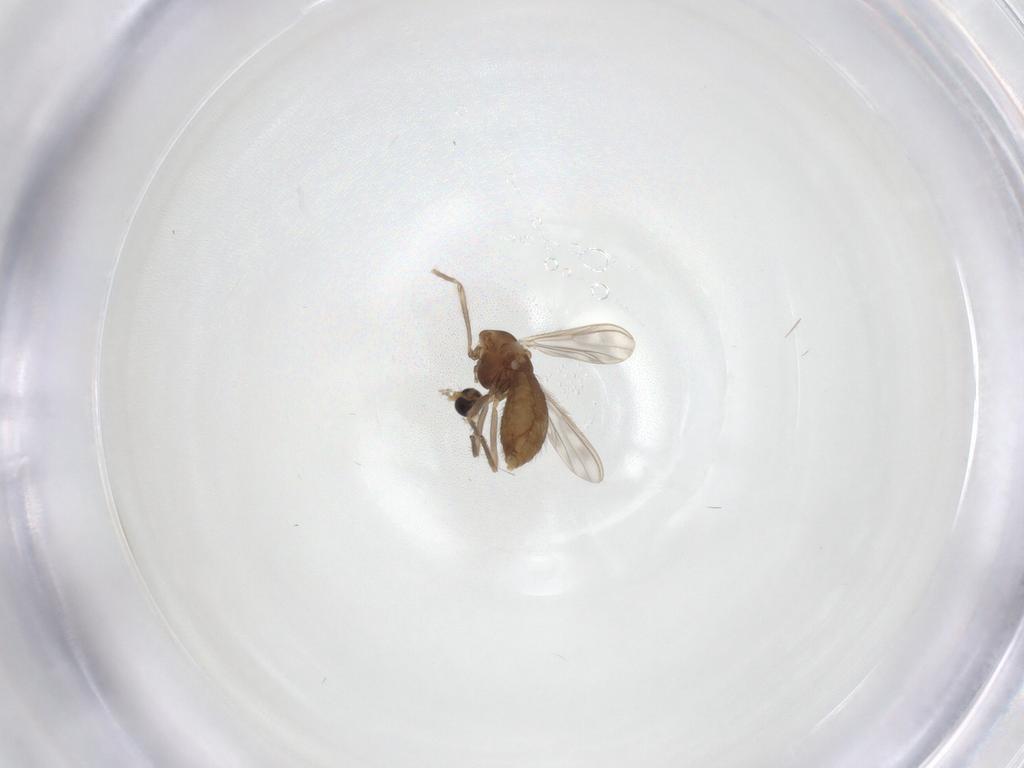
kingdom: Animalia
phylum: Arthropoda
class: Insecta
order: Diptera
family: Chironomidae
